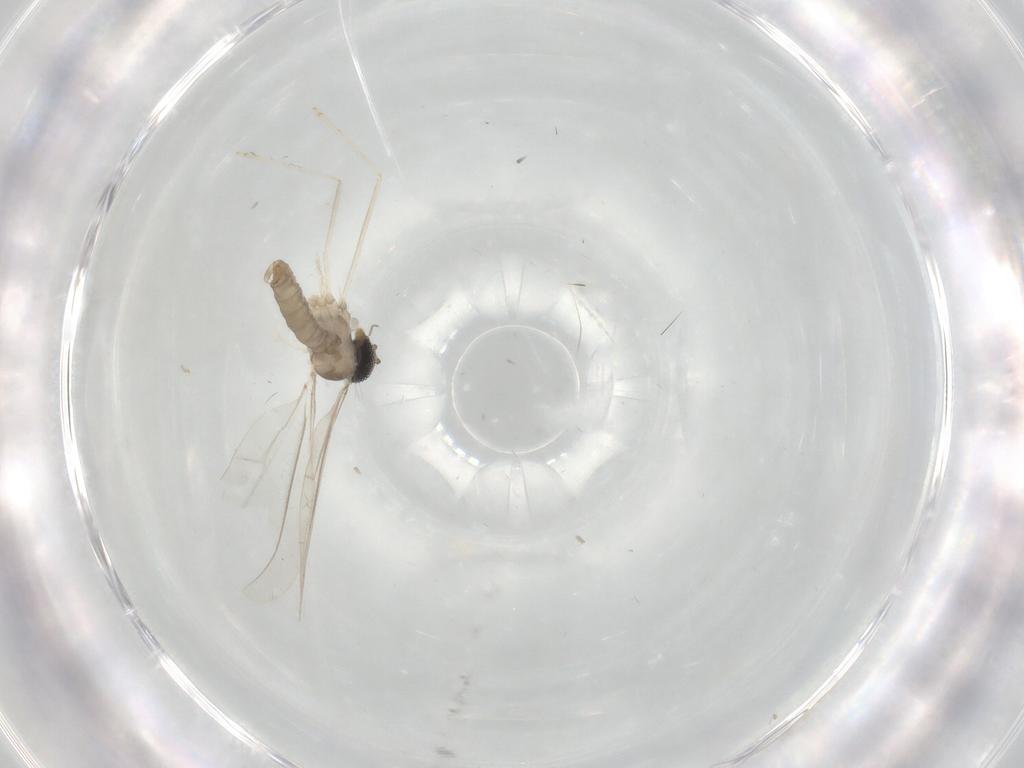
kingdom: Animalia
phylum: Arthropoda
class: Insecta
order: Diptera
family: Cecidomyiidae
